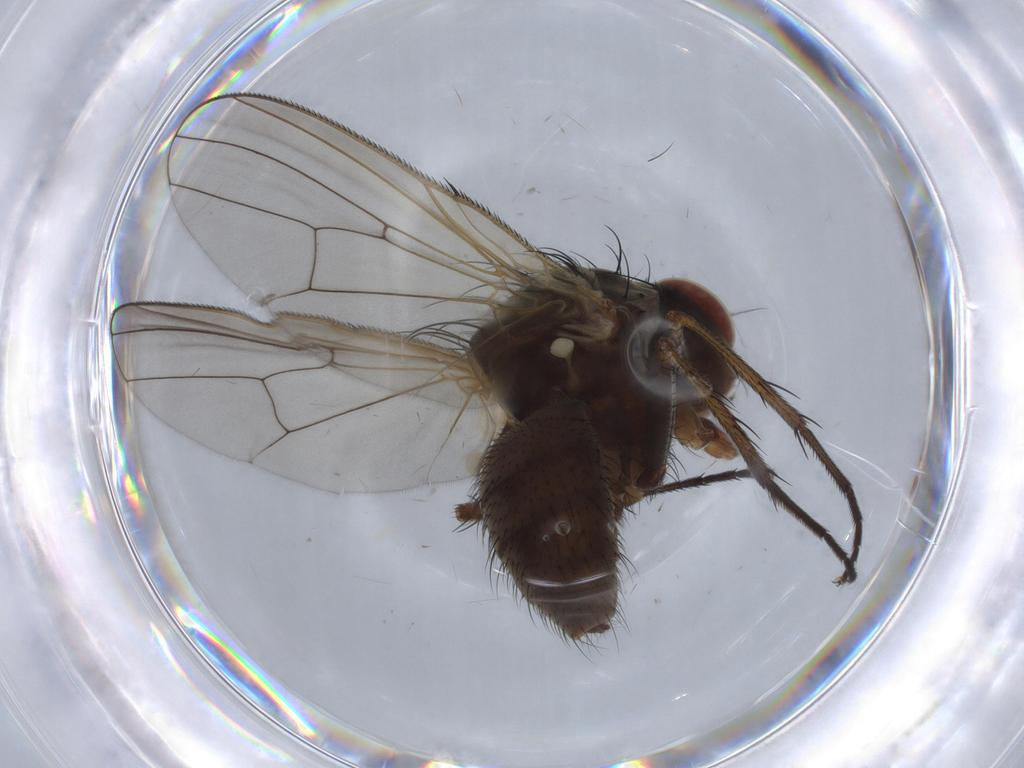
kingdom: Animalia
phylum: Arthropoda
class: Insecta
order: Diptera
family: Anthomyiidae
